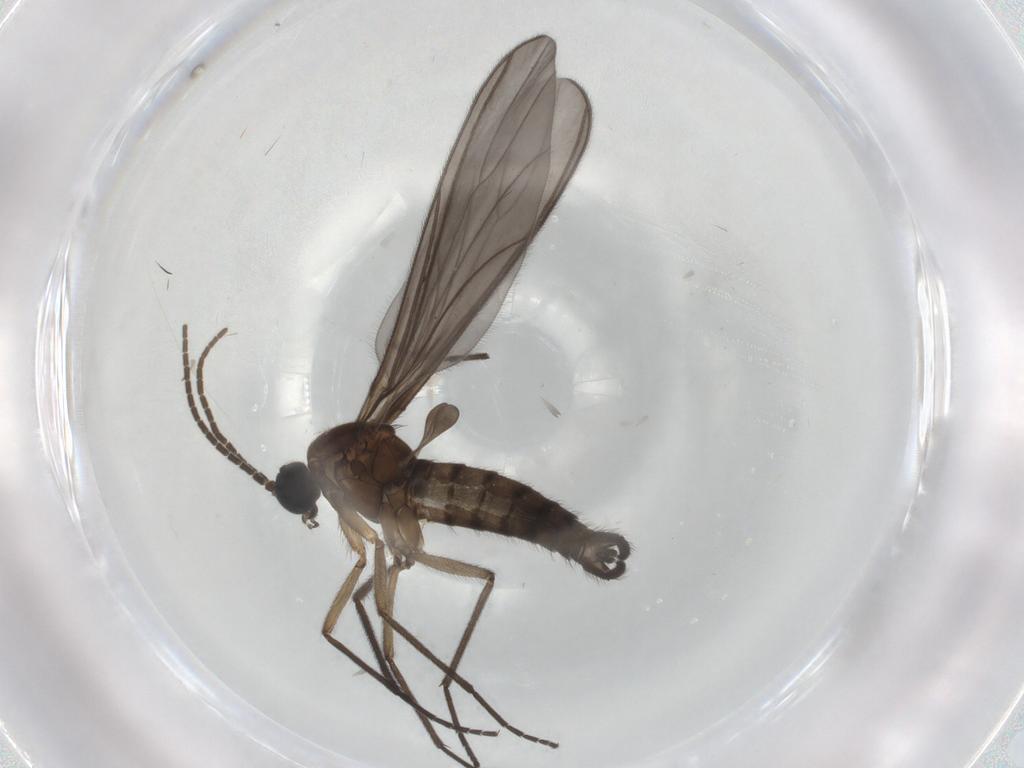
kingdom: Animalia
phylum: Arthropoda
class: Insecta
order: Diptera
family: Sciaridae
